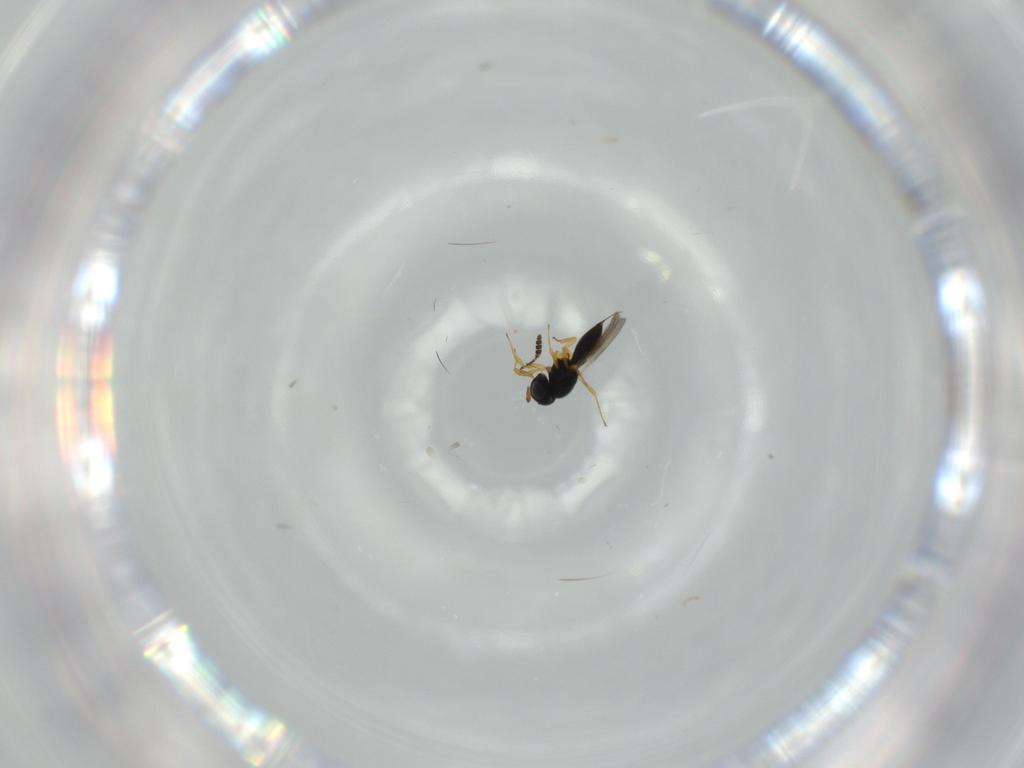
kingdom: Animalia
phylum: Arthropoda
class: Insecta
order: Hymenoptera
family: Scelionidae
